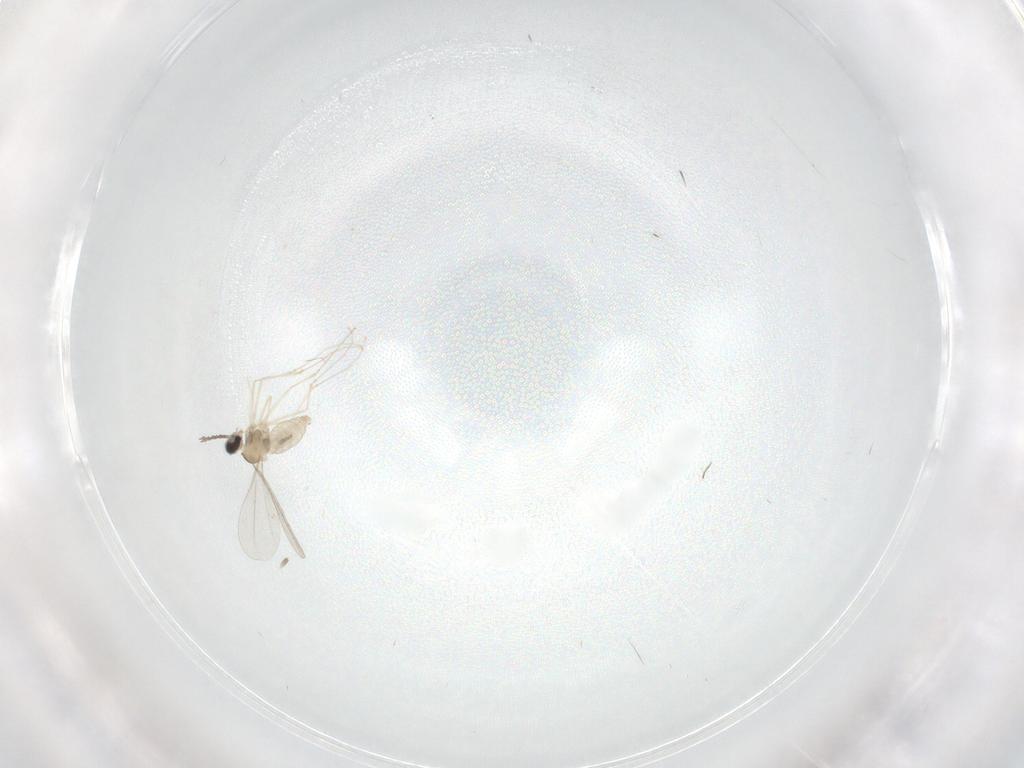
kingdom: Animalia
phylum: Arthropoda
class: Insecta
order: Diptera
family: Cecidomyiidae
